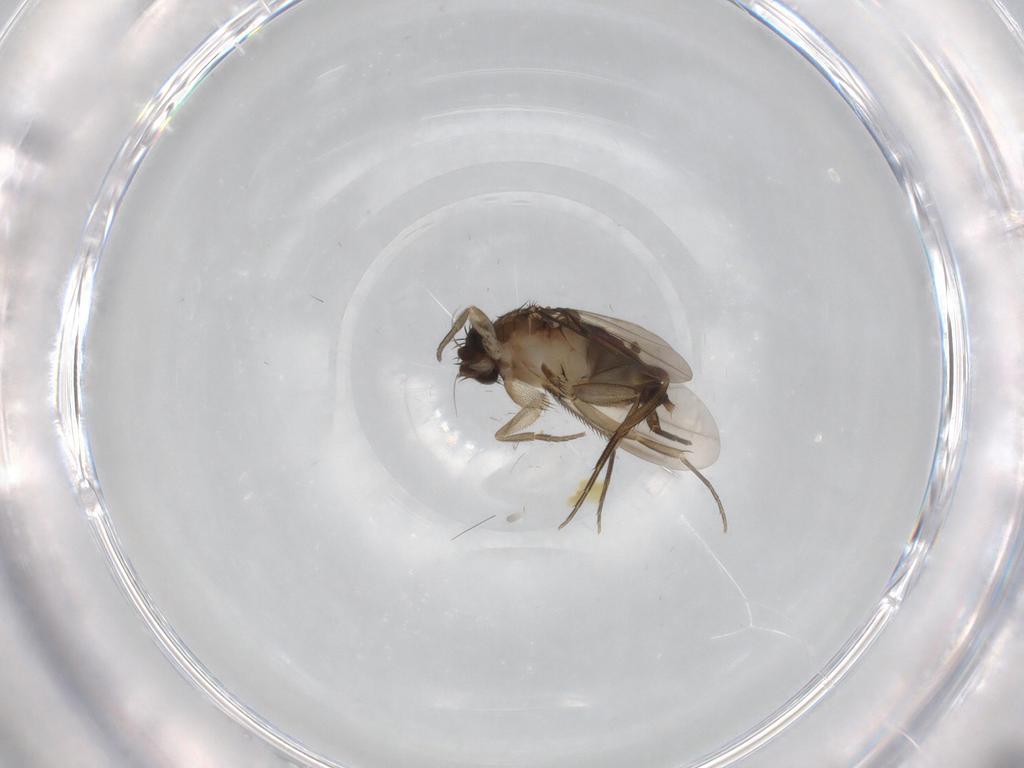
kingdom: Animalia
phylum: Arthropoda
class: Insecta
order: Diptera
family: Phoridae
